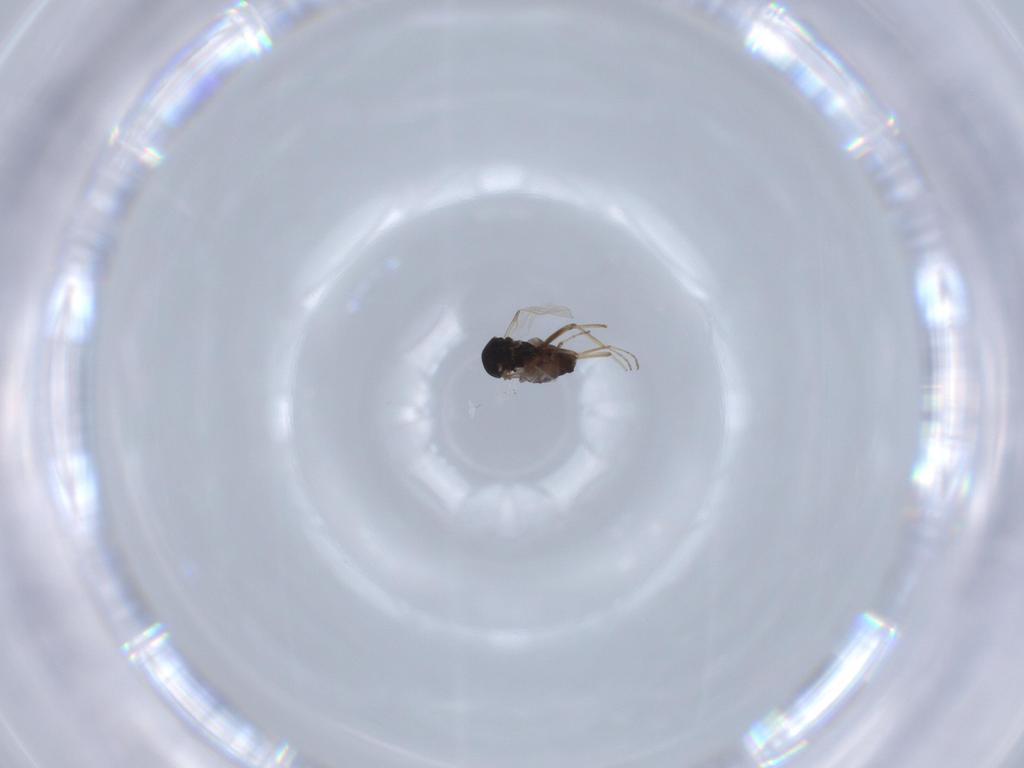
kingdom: Animalia
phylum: Arthropoda
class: Insecta
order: Diptera
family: Ceratopogonidae
